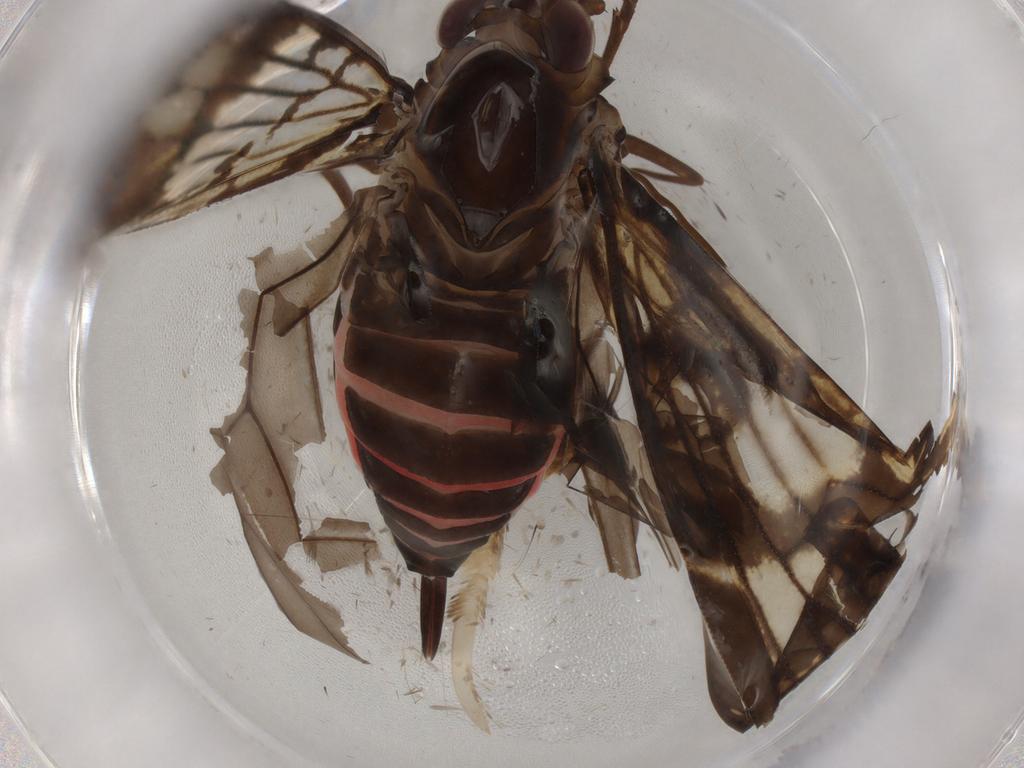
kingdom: Animalia
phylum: Arthropoda
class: Insecta
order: Hemiptera
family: Cixiidae
